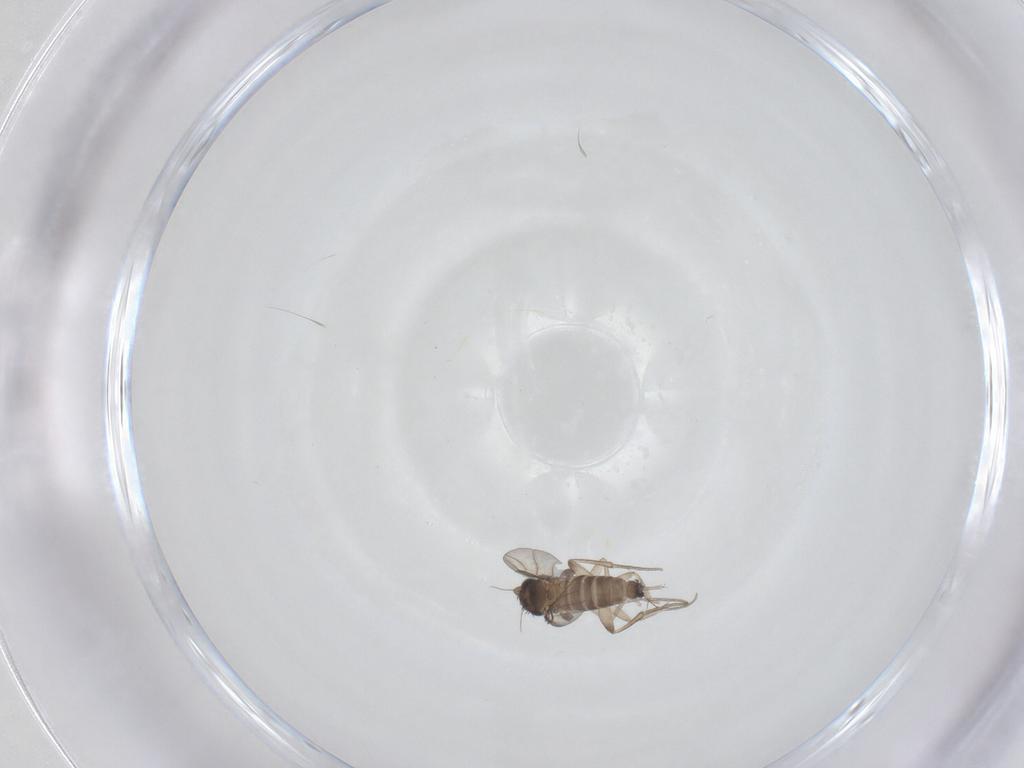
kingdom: Animalia
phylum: Arthropoda
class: Insecta
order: Diptera
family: Phoridae
